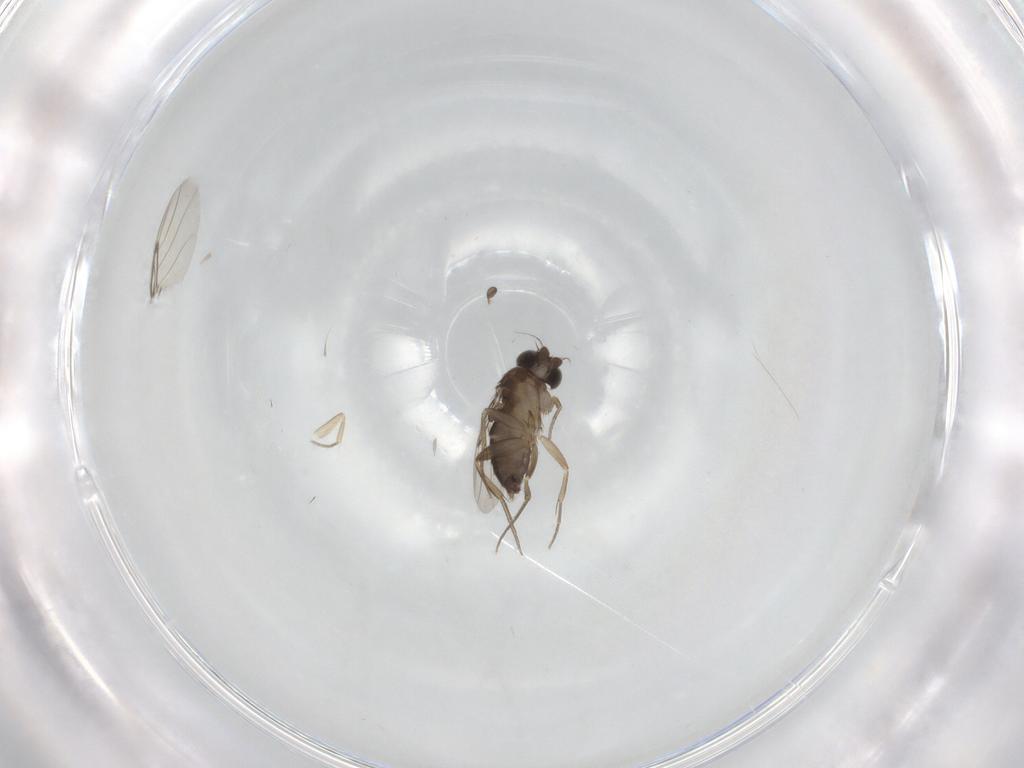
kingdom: Animalia
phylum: Arthropoda
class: Insecta
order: Diptera
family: Phoridae
